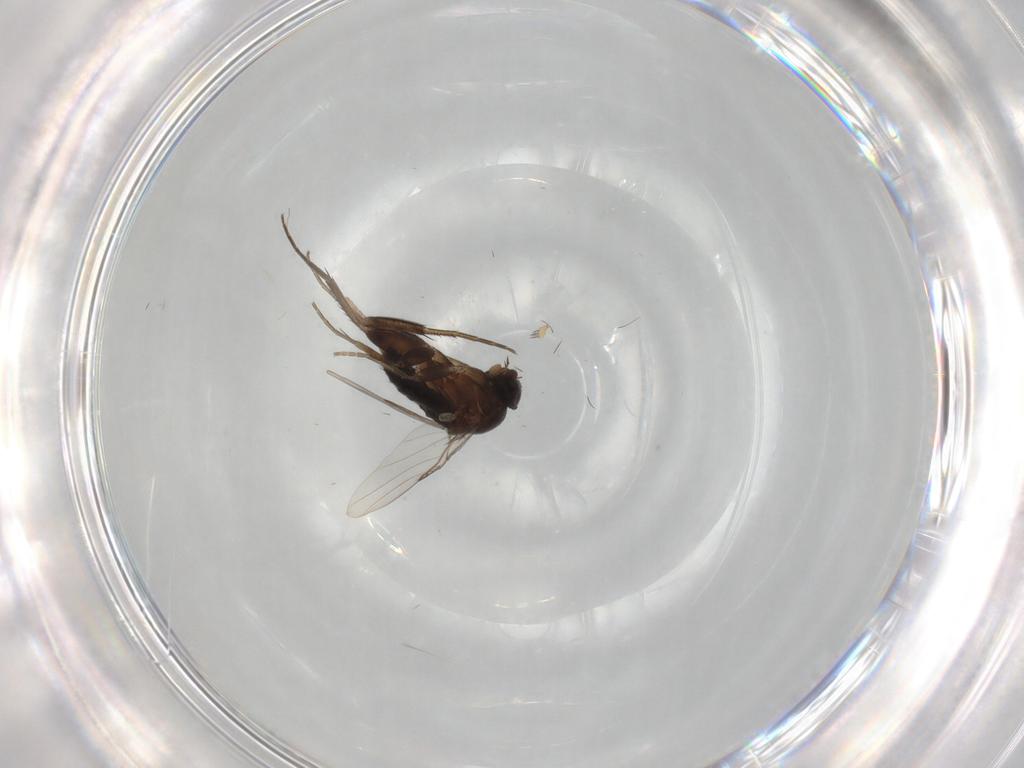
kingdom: Animalia
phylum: Arthropoda
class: Insecta
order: Diptera
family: Phoridae
